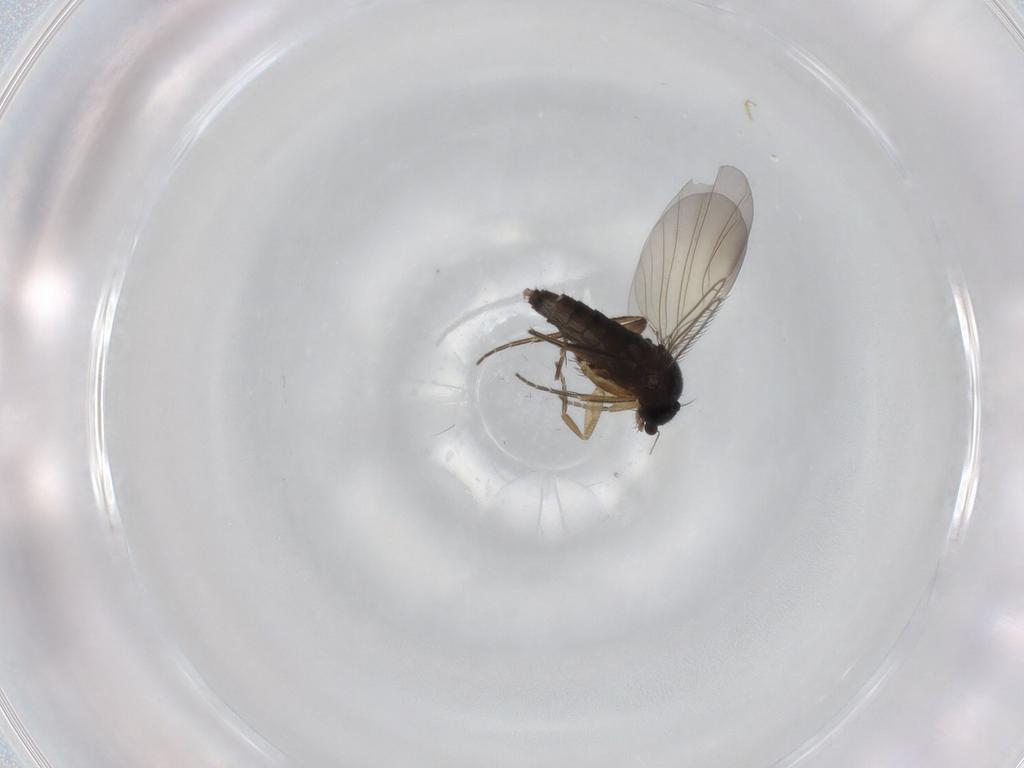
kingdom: Animalia
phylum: Arthropoda
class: Insecta
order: Diptera
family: Phoridae
